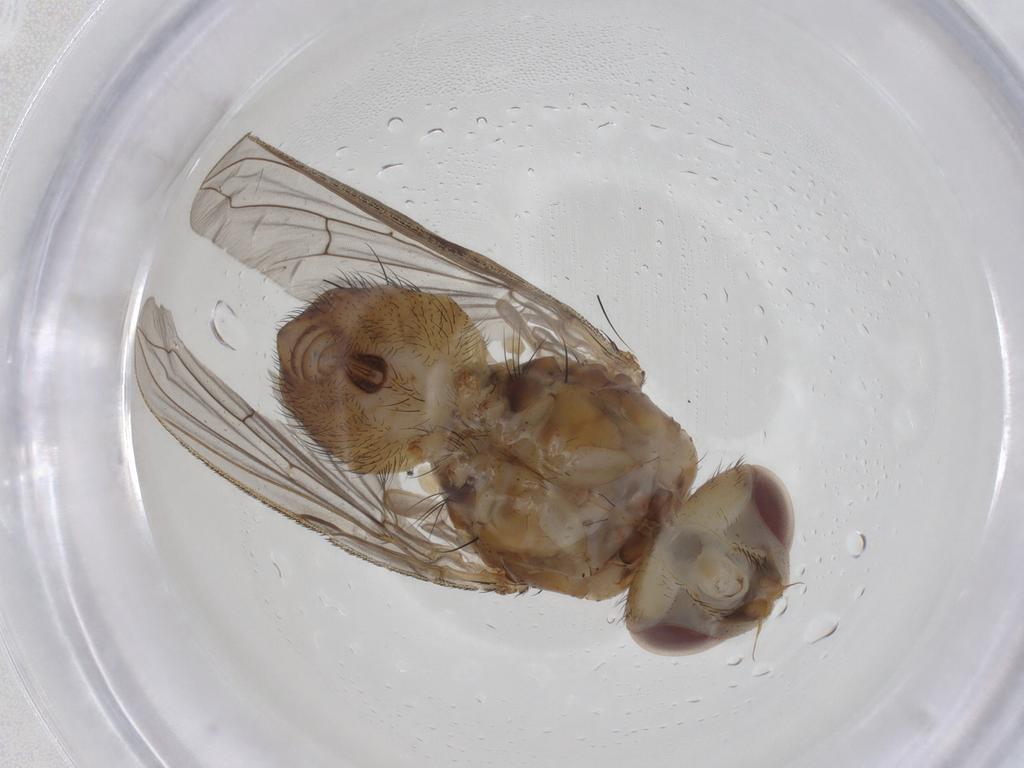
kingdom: Animalia
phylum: Arthropoda
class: Insecta
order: Diptera
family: Tachinidae
